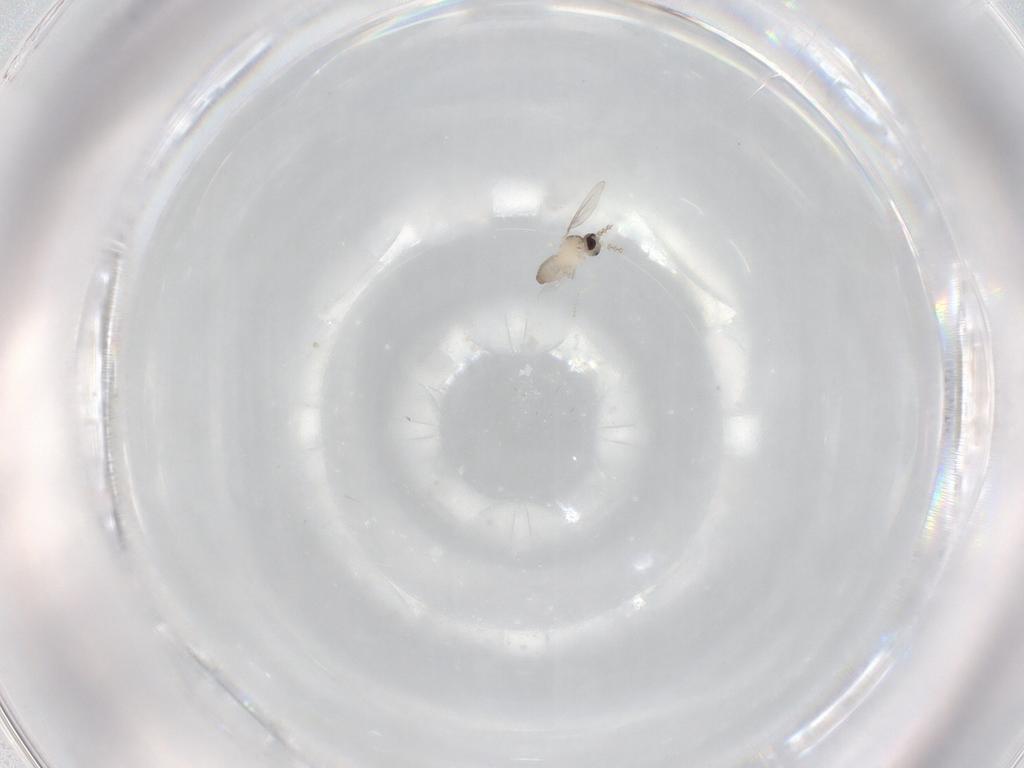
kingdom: Animalia
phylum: Arthropoda
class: Insecta
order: Diptera
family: Cecidomyiidae
